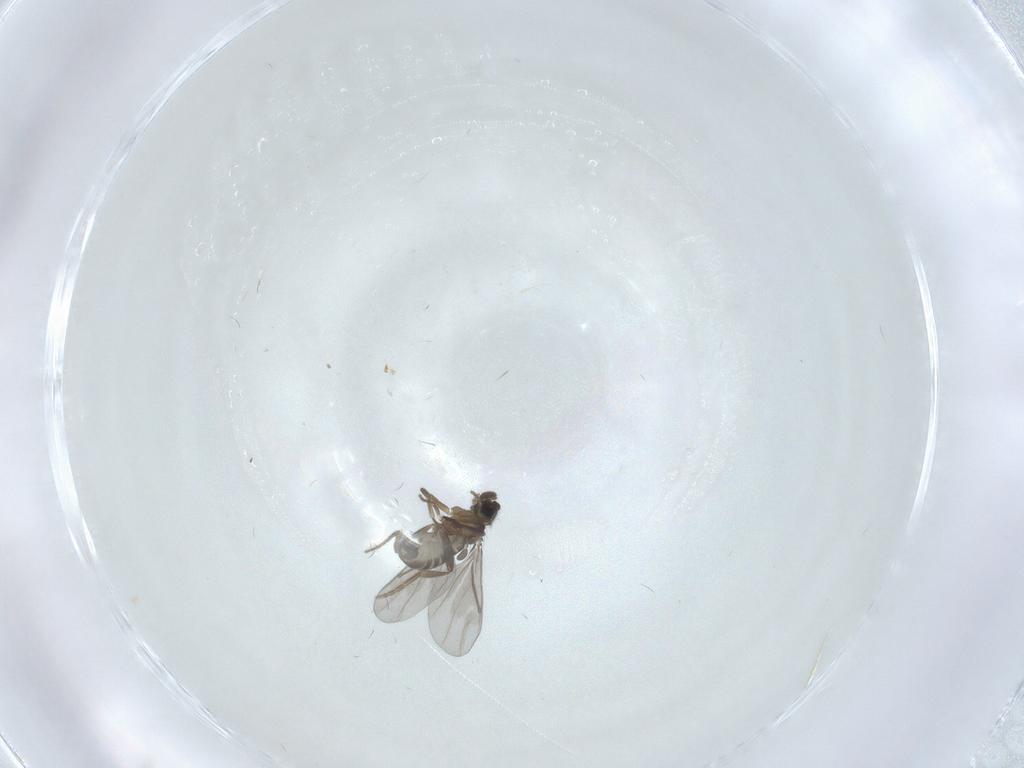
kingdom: Animalia
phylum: Arthropoda
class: Insecta
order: Diptera
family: Phoridae
